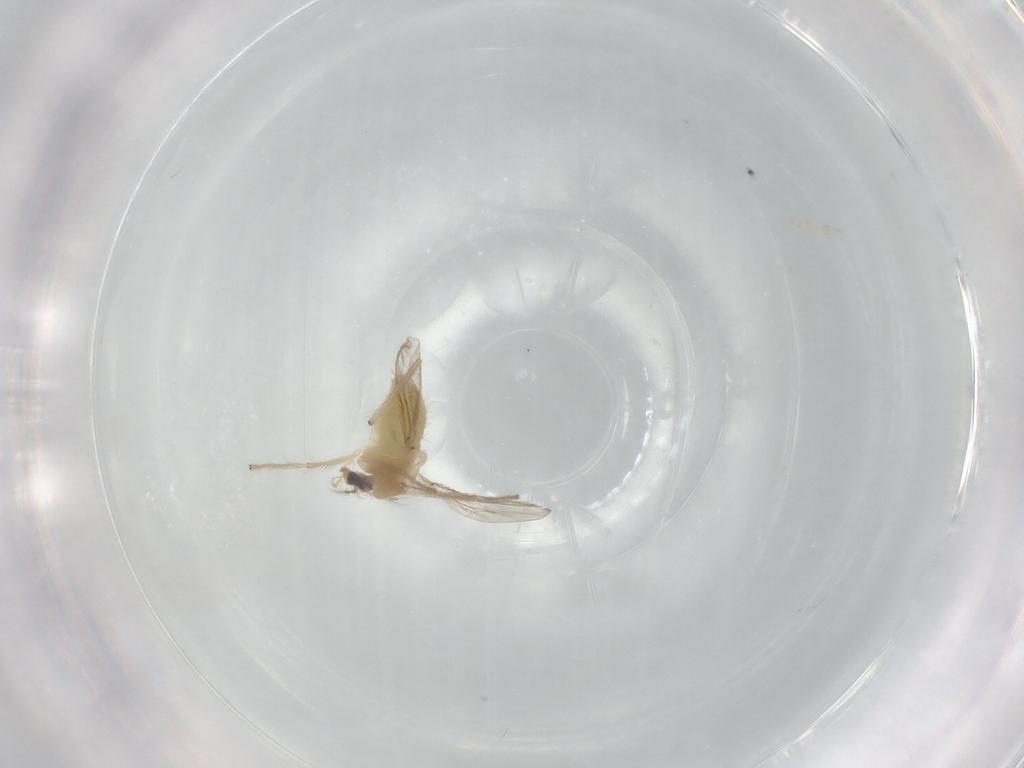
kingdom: Animalia
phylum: Arthropoda
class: Insecta
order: Diptera
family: Chironomidae
